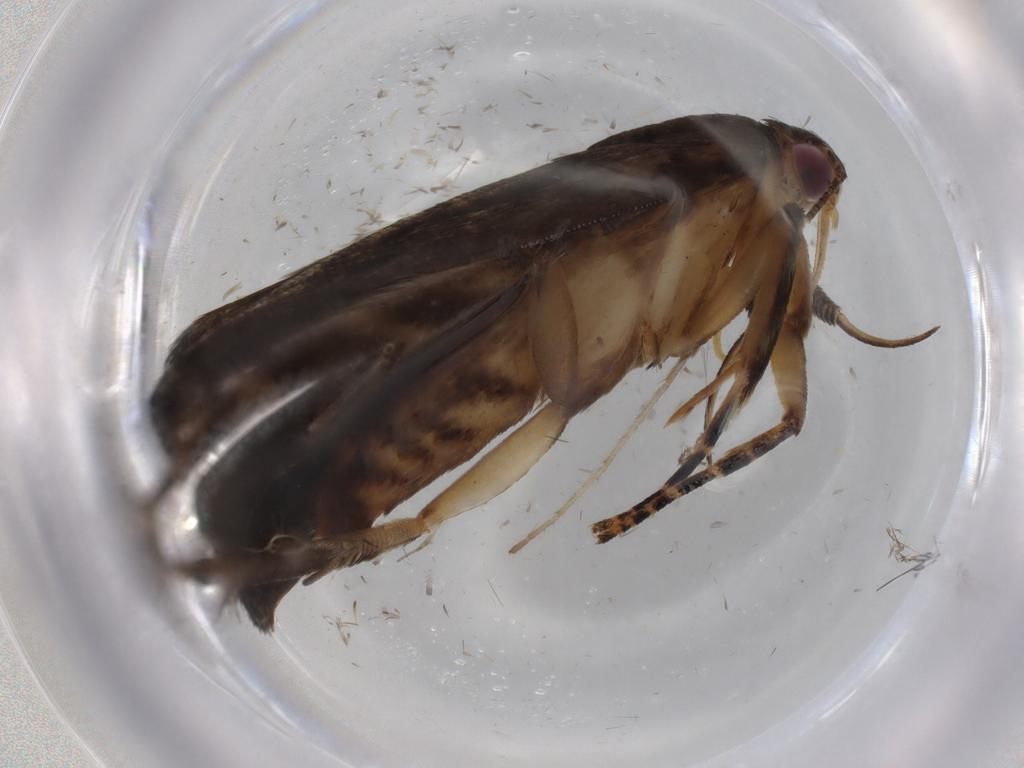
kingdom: Animalia
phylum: Arthropoda
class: Insecta
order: Lepidoptera
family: Gelechiidae
